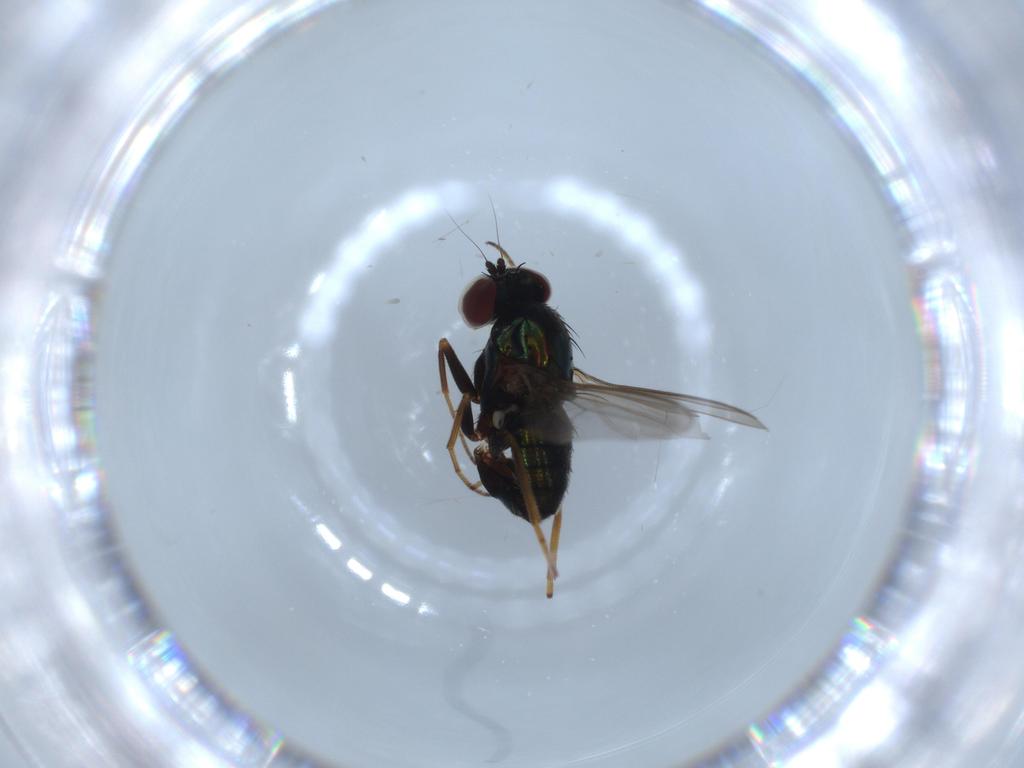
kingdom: Animalia
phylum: Arthropoda
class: Insecta
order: Diptera
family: Dolichopodidae
